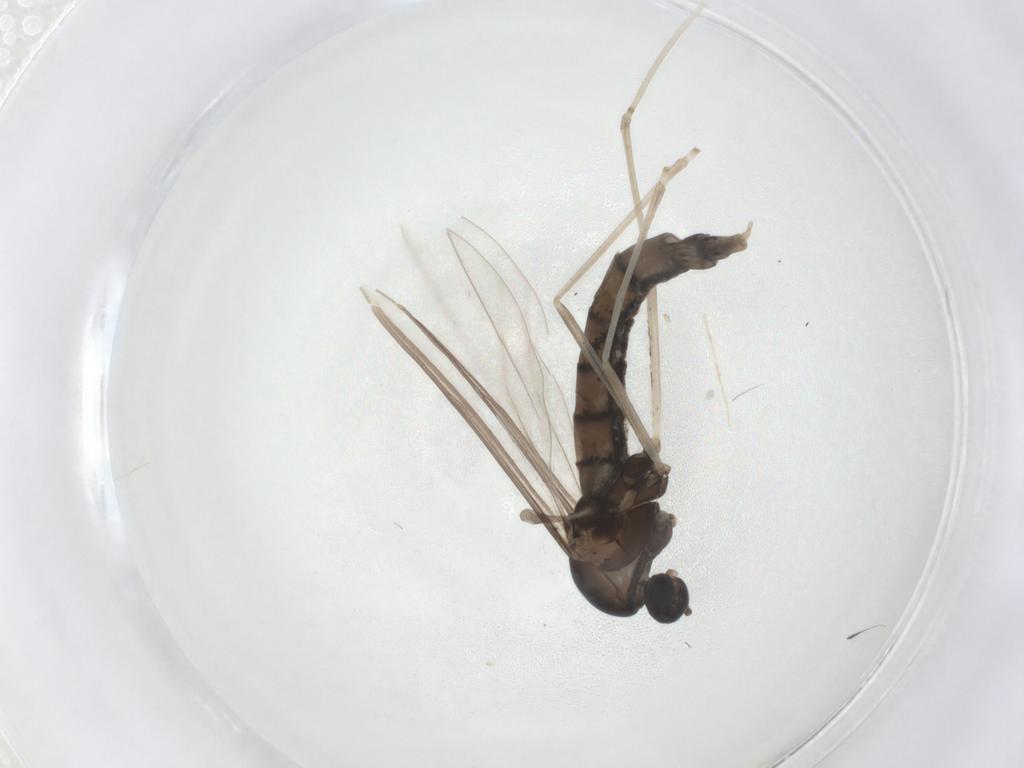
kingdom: Animalia
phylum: Arthropoda
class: Insecta
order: Diptera
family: Cecidomyiidae
